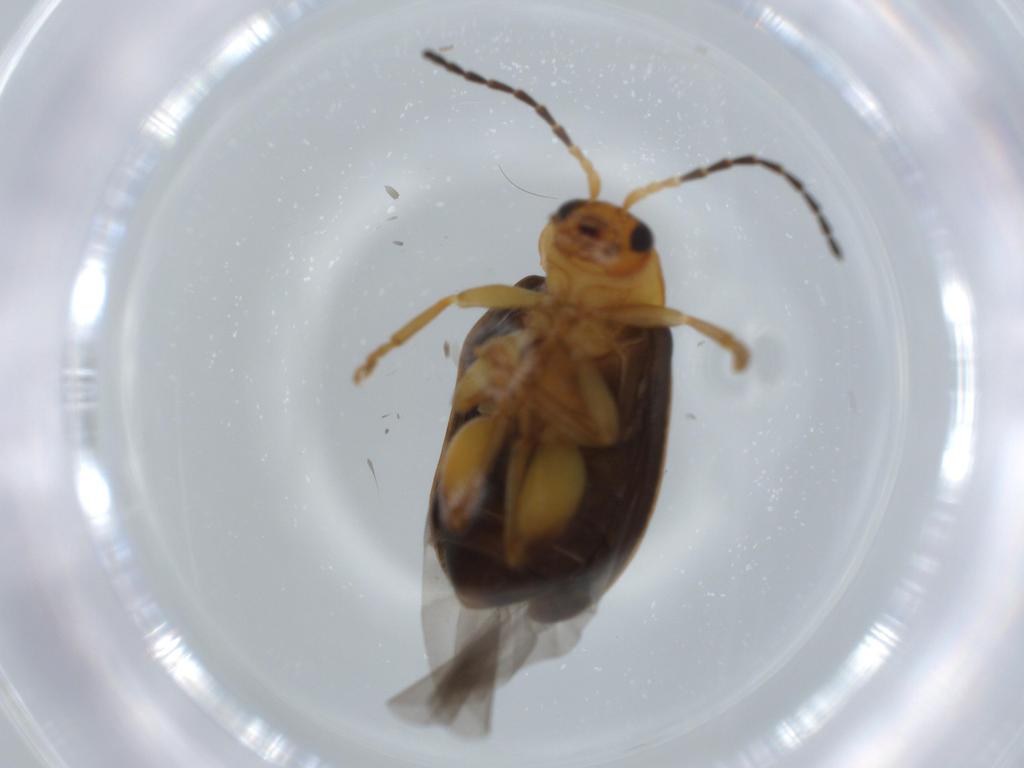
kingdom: Animalia
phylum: Arthropoda
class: Insecta
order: Coleoptera
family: Chrysomelidae
